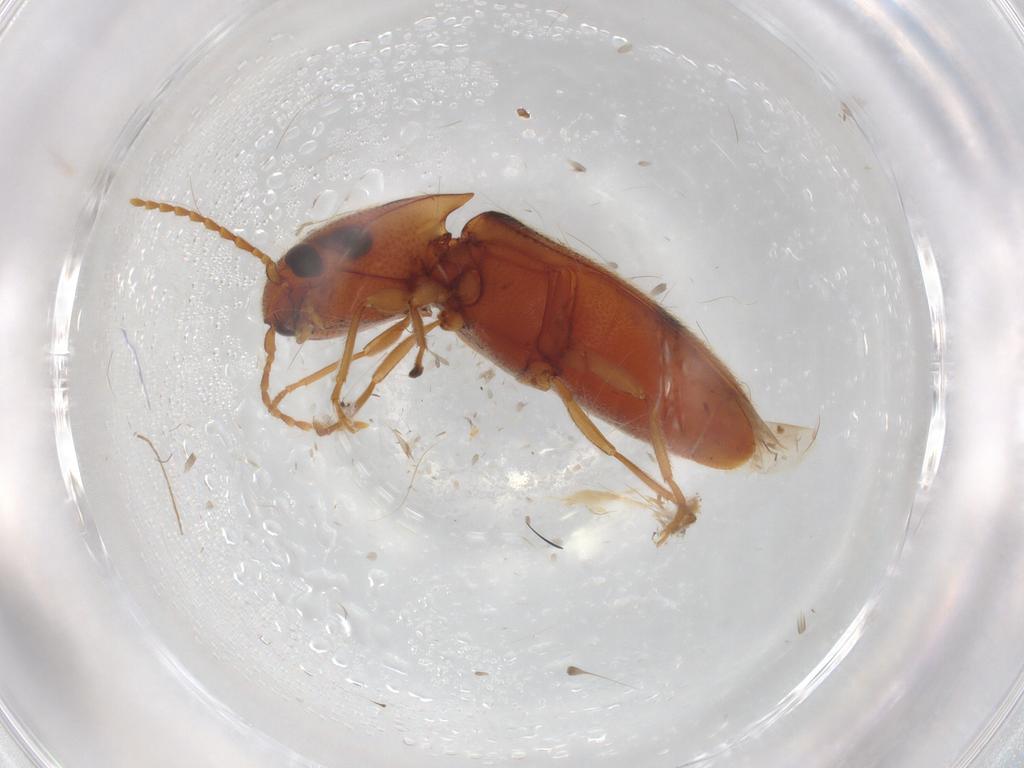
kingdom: Animalia
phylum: Arthropoda
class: Insecta
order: Coleoptera
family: Elateridae
